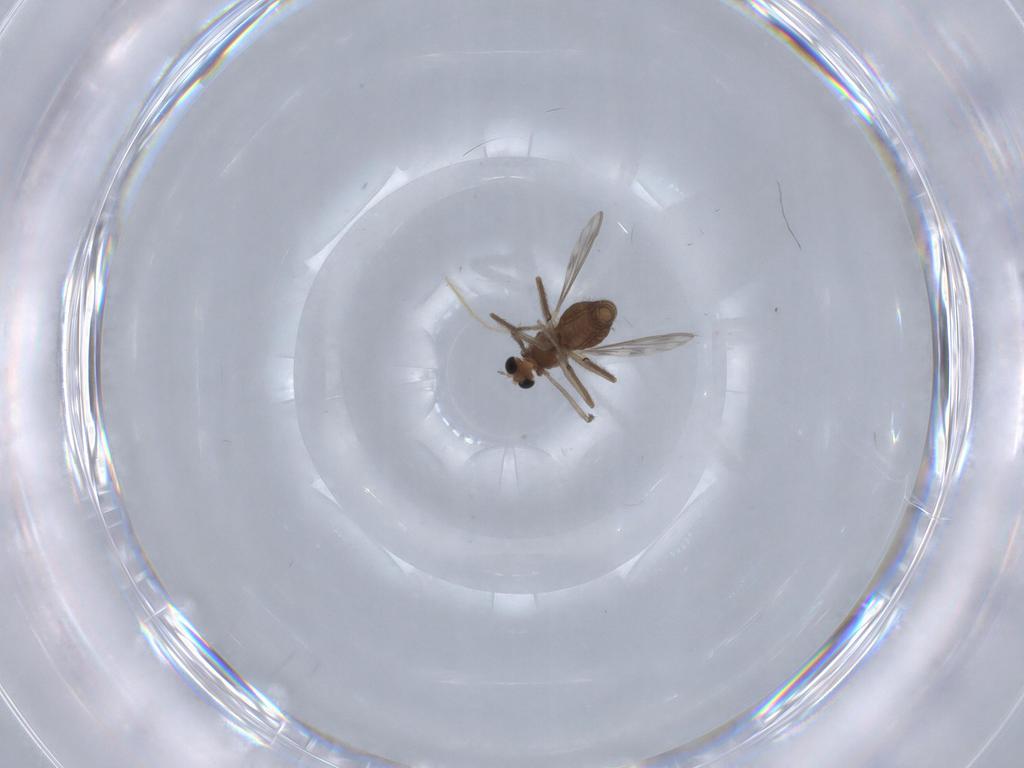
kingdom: Animalia
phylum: Arthropoda
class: Insecta
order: Diptera
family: Chironomidae
